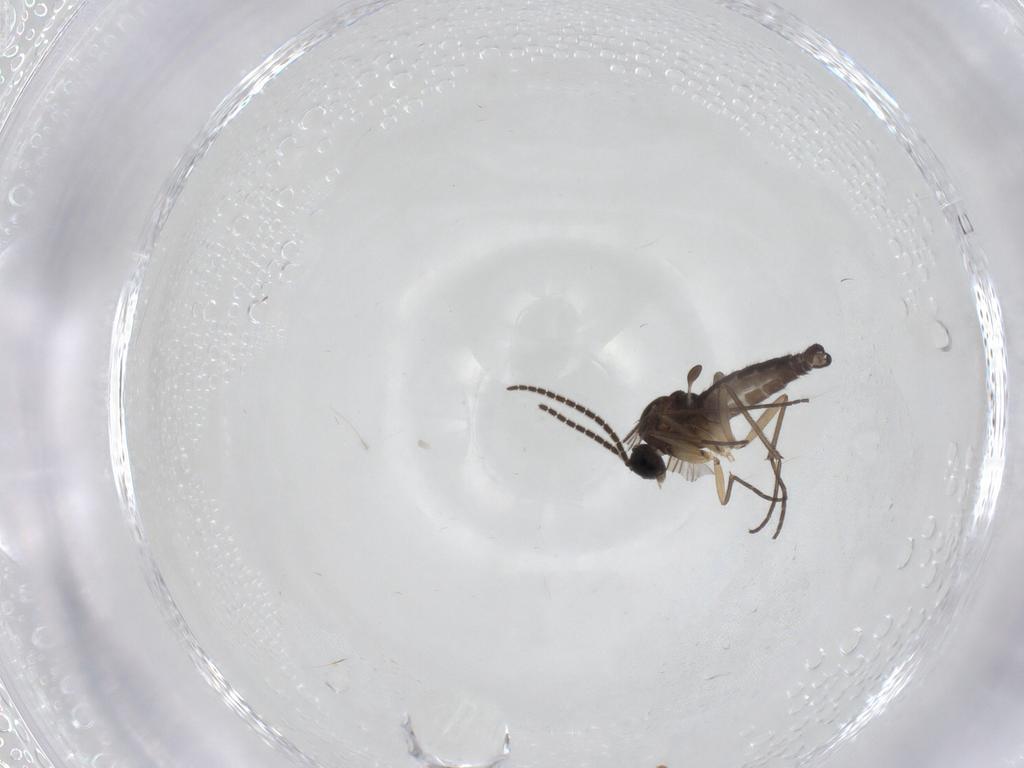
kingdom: Animalia
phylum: Arthropoda
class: Insecta
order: Diptera
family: Sciaridae
